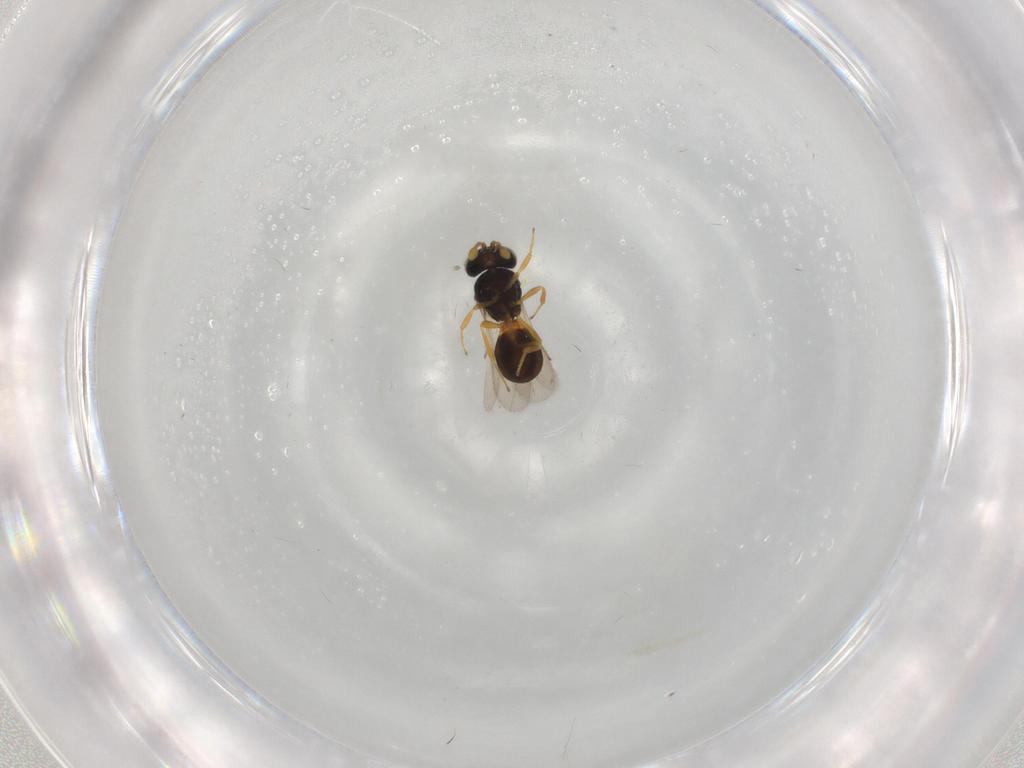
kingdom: Animalia
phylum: Arthropoda
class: Insecta
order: Hymenoptera
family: Scelionidae
